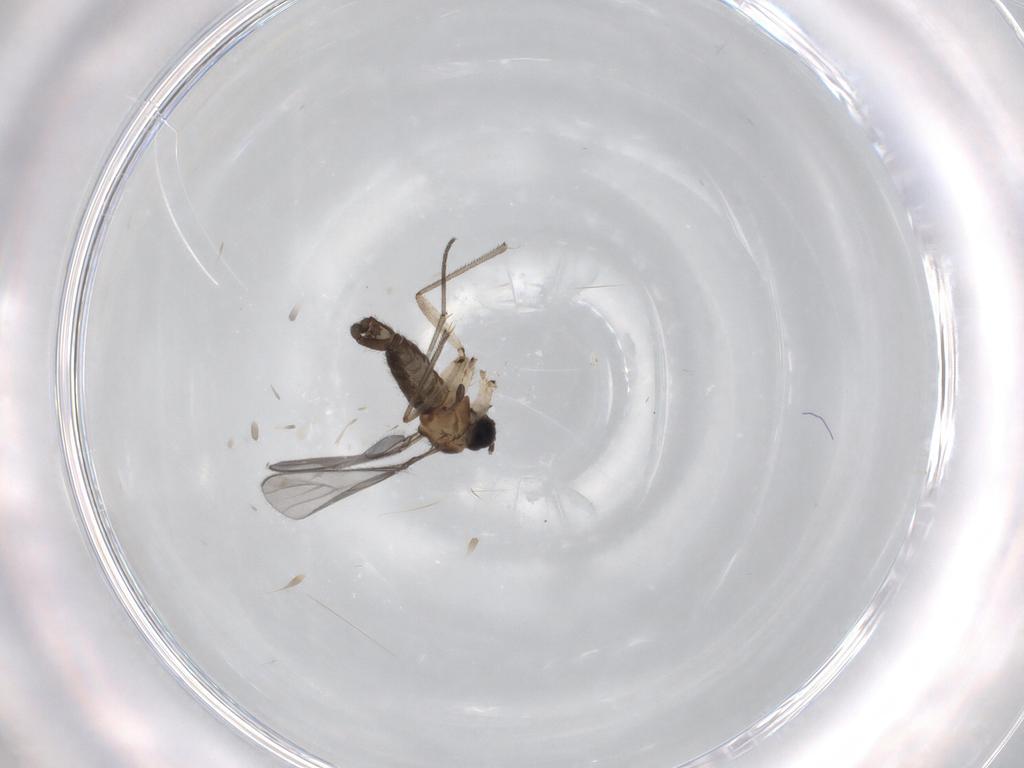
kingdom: Animalia
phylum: Arthropoda
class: Insecta
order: Diptera
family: Sciaridae
